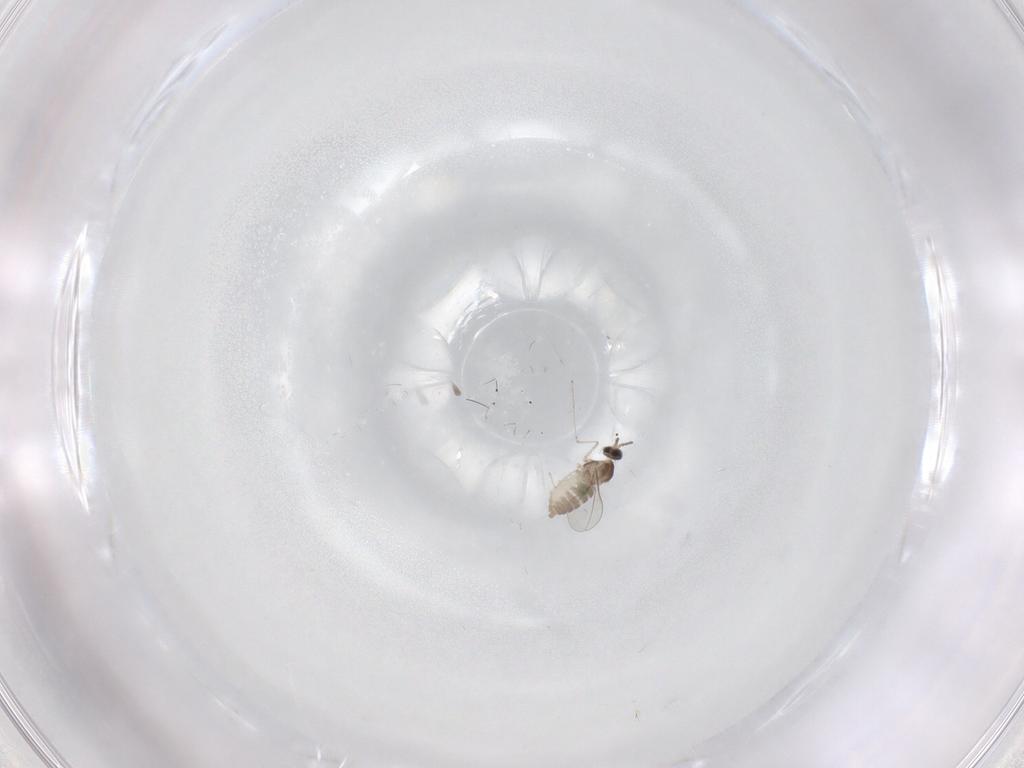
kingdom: Animalia
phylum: Arthropoda
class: Insecta
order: Diptera
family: Cecidomyiidae
